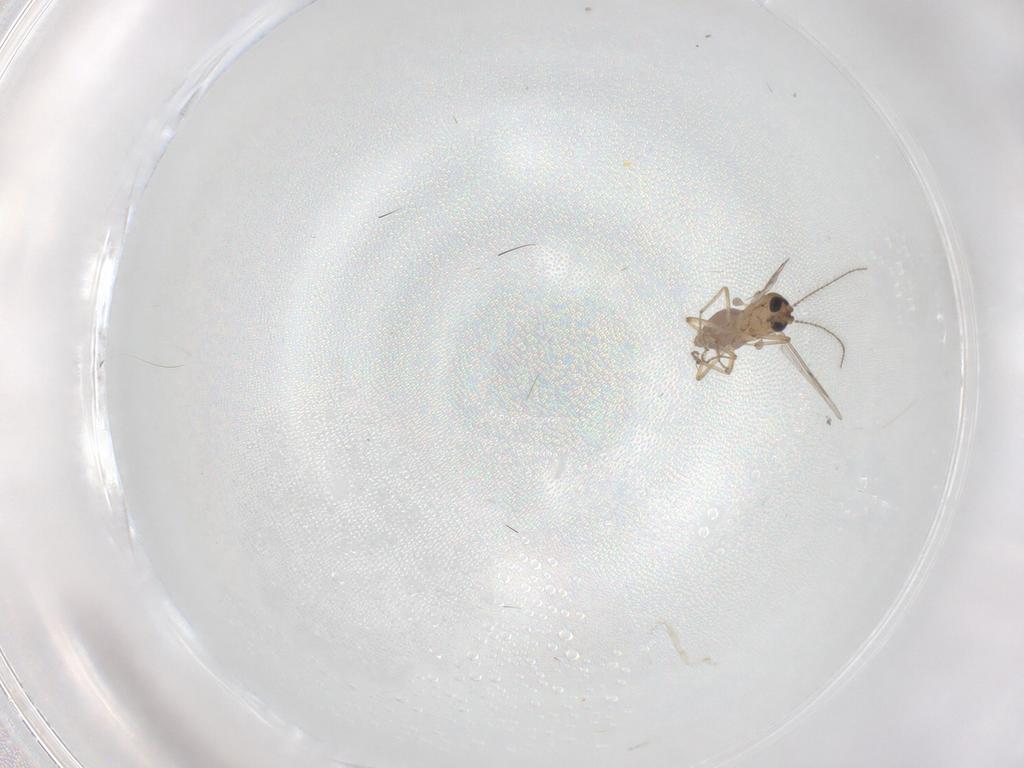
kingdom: Animalia
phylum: Arthropoda
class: Insecta
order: Diptera
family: Ceratopogonidae
